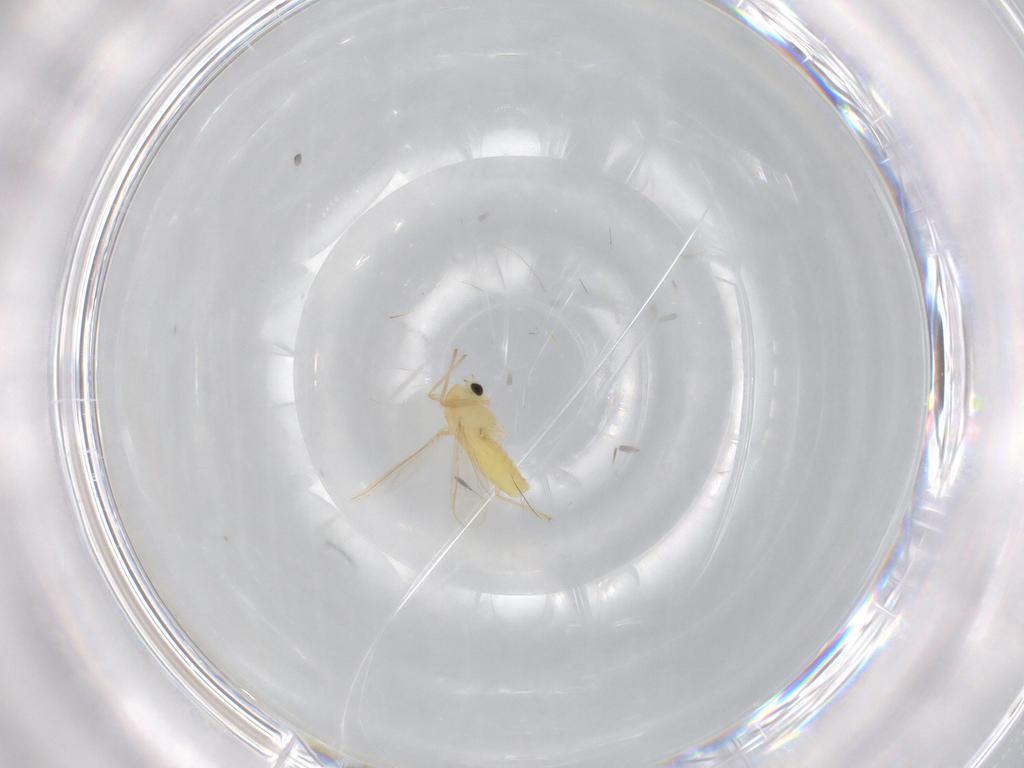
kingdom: Animalia
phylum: Arthropoda
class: Insecta
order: Diptera
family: Chironomidae
